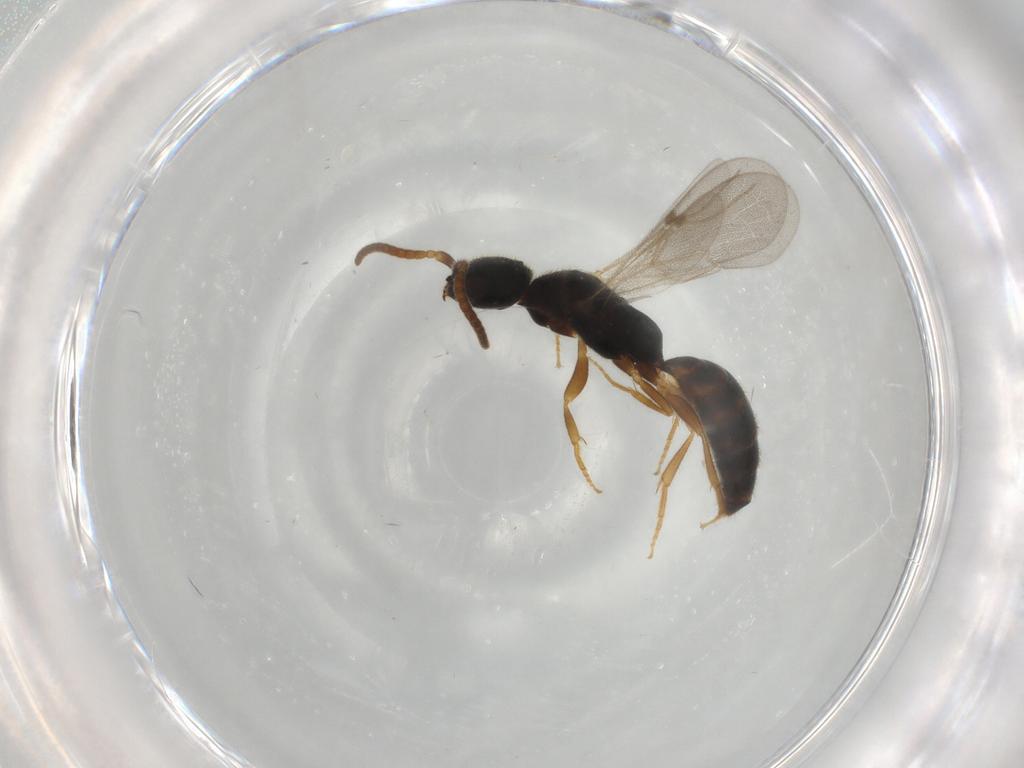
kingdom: Animalia
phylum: Arthropoda
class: Insecta
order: Hymenoptera
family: Bethylidae
